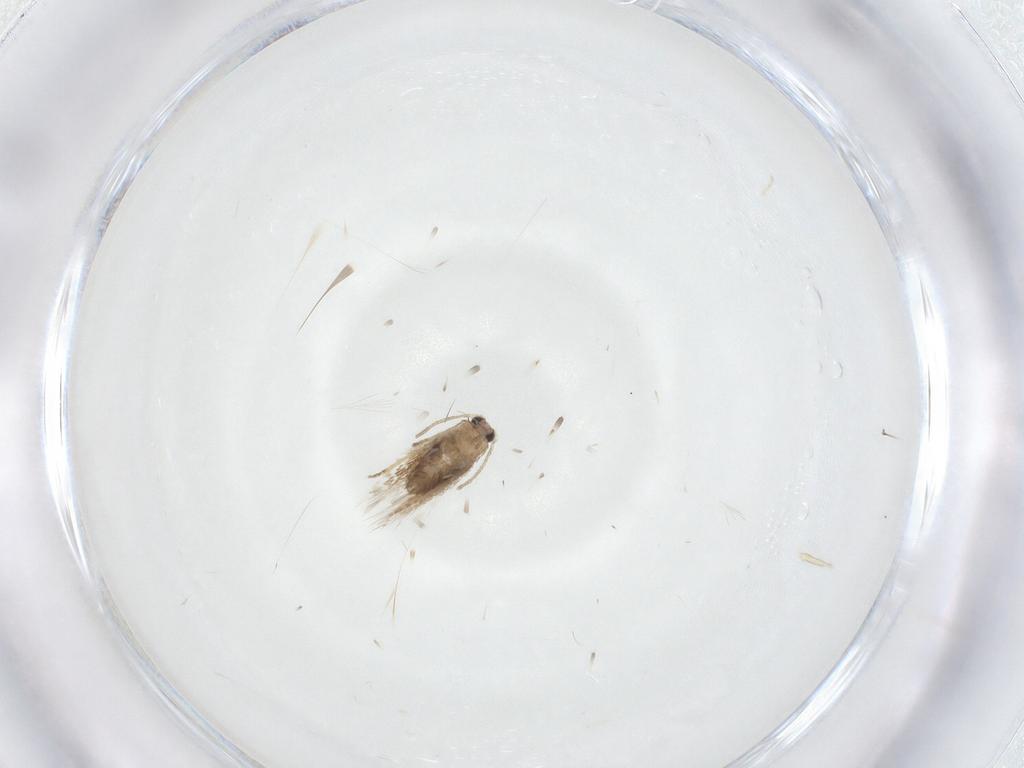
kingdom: Animalia
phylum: Arthropoda
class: Insecta
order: Lepidoptera
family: Nepticulidae
